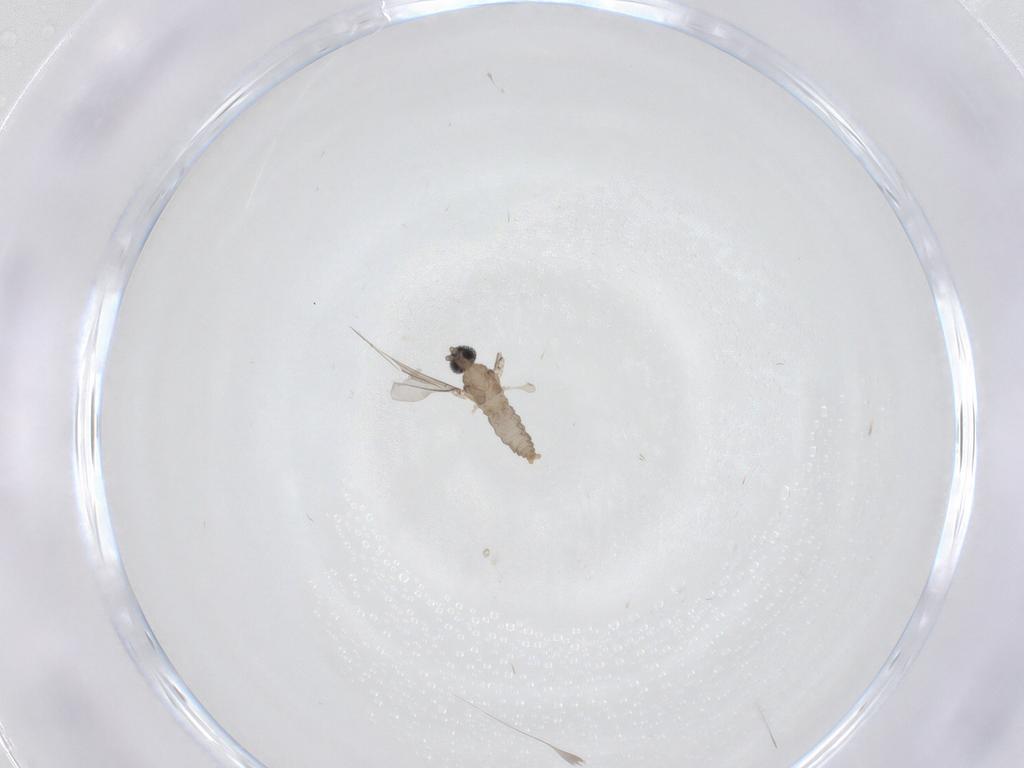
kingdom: Animalia
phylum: Arthropoda
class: Insecta
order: Diptera
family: Cecidomyiidae
